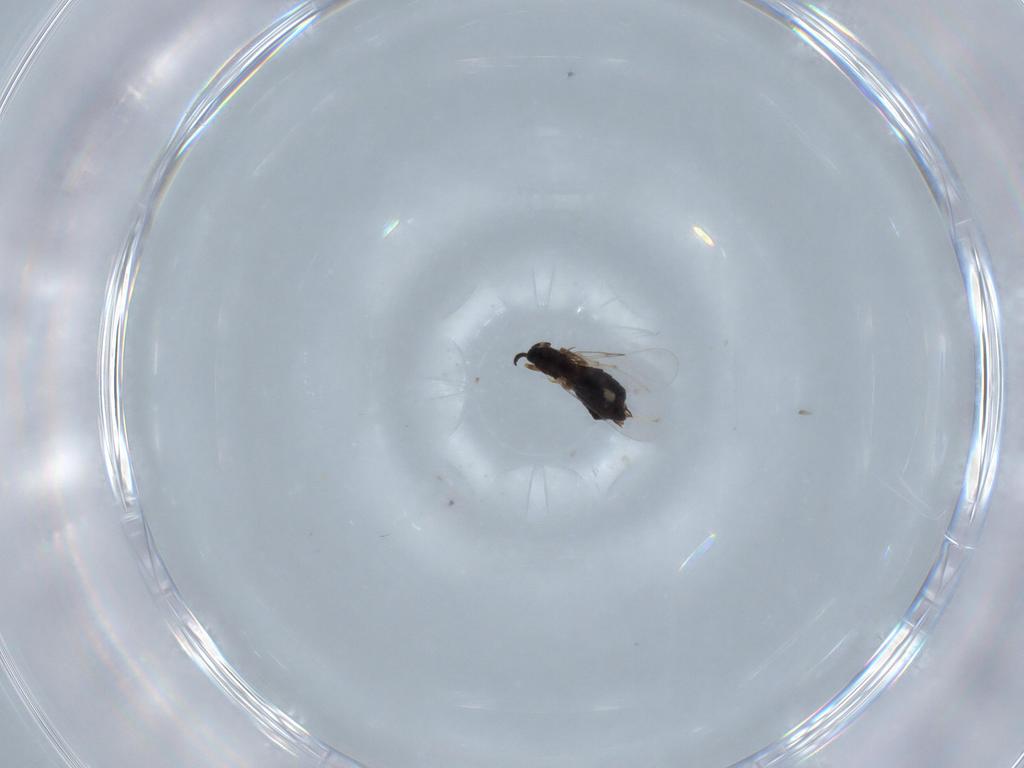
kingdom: Animalia
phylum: Arthropoda
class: Insecta
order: Diptera
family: Scatopsidae
